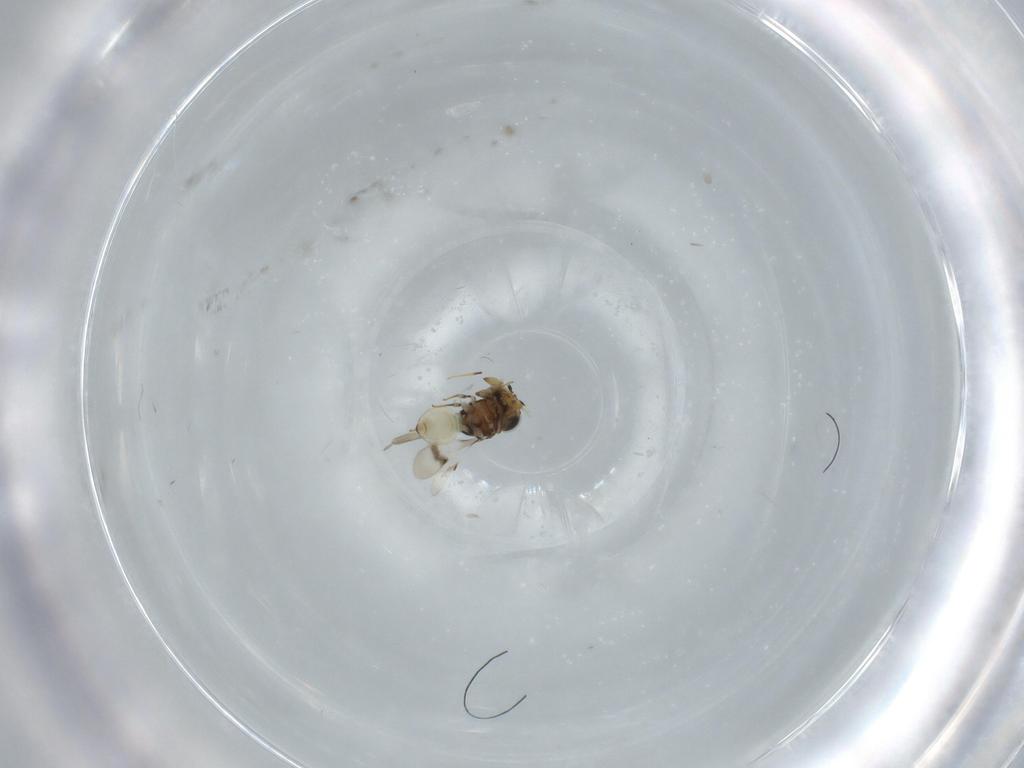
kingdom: Animalia
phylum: Arthropoda
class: Insecta
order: Hymenoptera
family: Scelionidae
